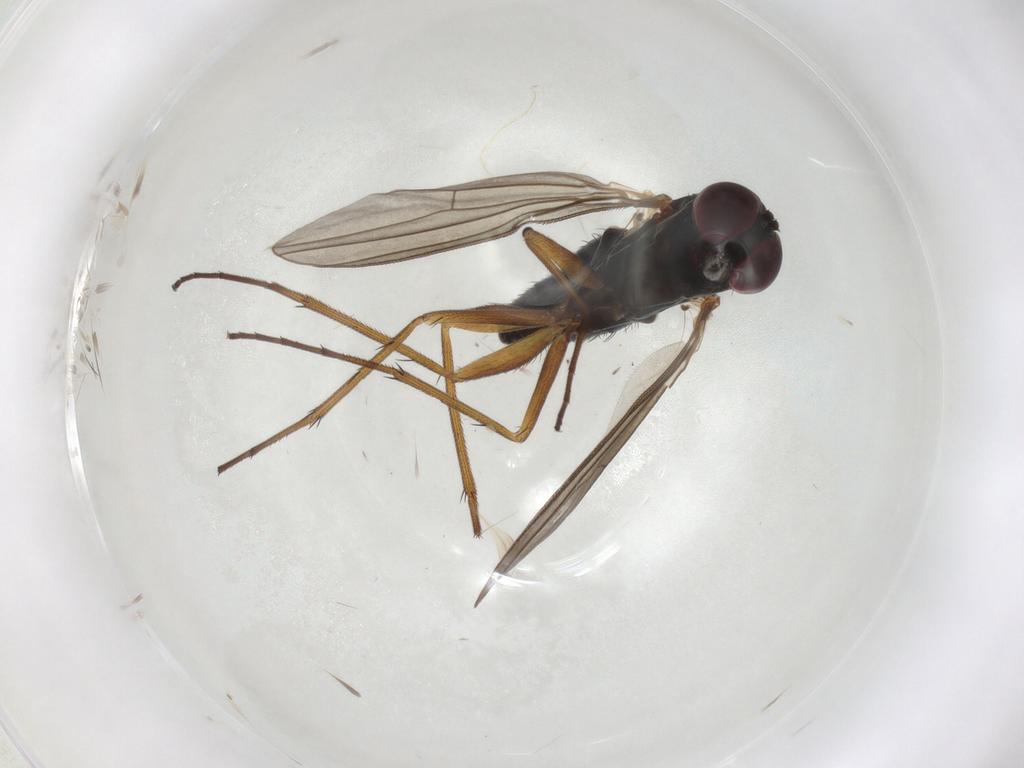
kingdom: Animalia
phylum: Arthropoda
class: Insecta
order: Diptera
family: Dolichopodidae
